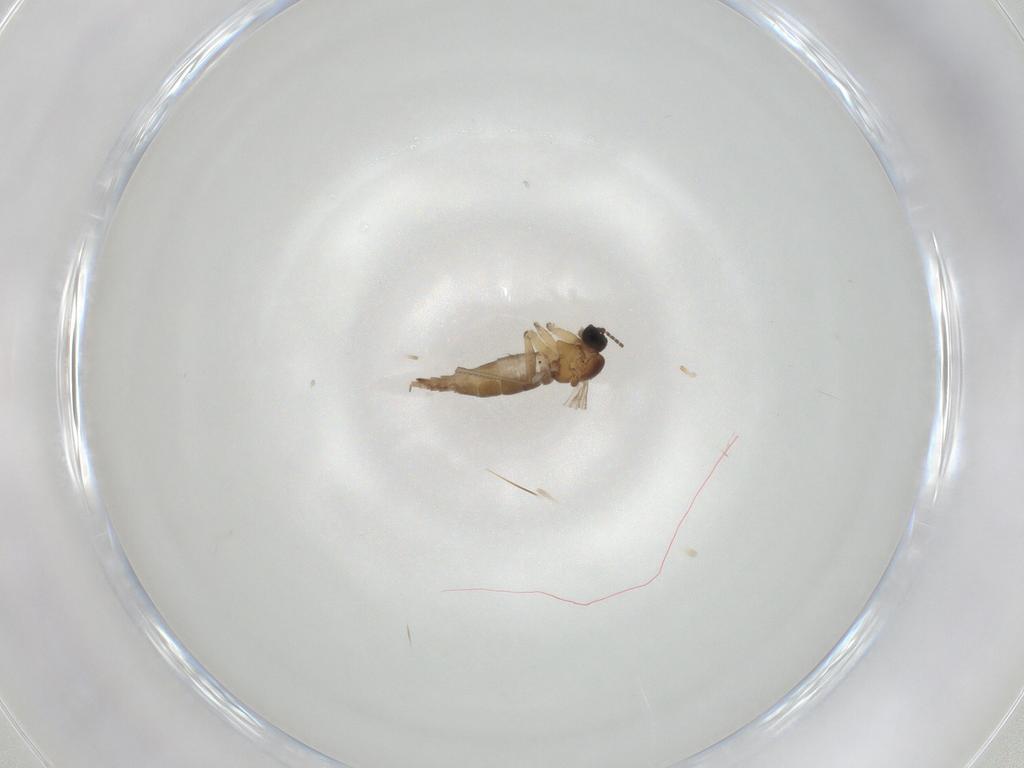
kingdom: Animalia
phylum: Arthropoda
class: Insecta
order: Diptera
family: Sciaridae
